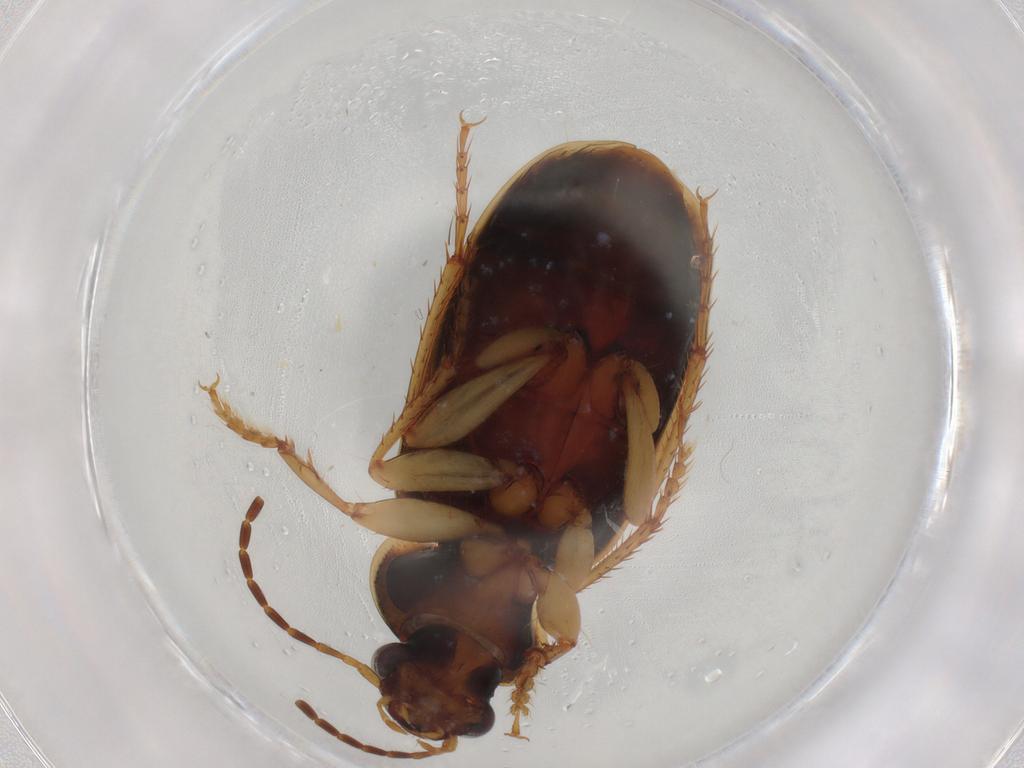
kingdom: Animalia
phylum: Arthropoda
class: Insecta
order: Coleoptera
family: Carabidae
